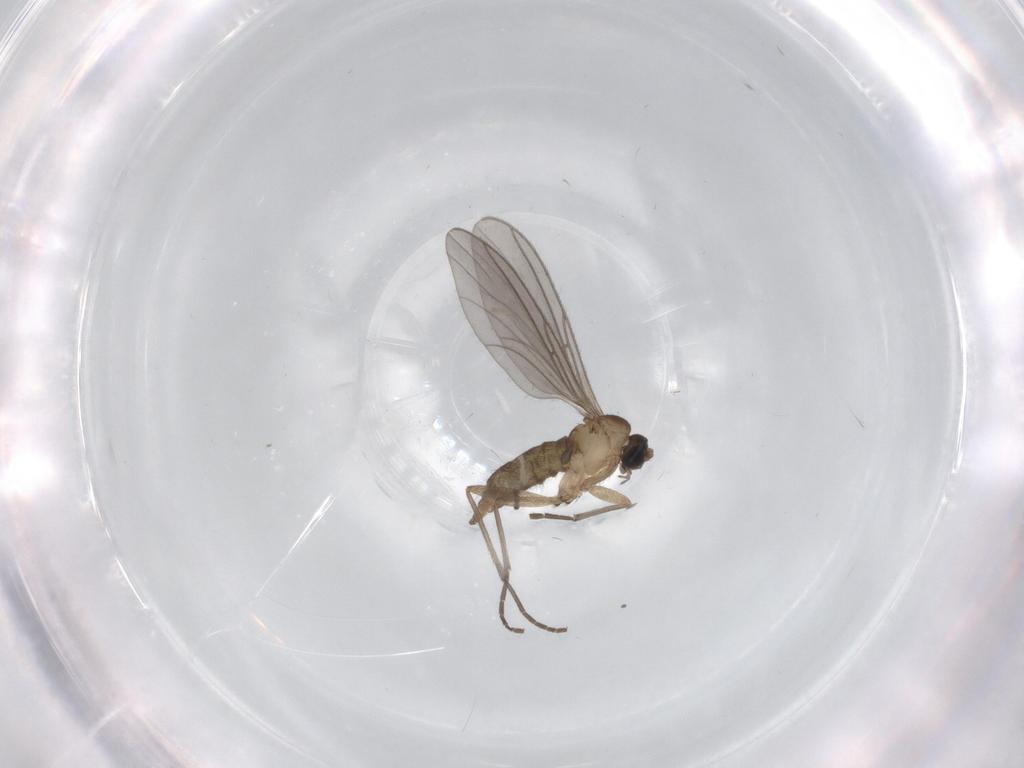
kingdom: Animalia
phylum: Arthropoda
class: Insecta
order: Diptera
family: Sciaridae
